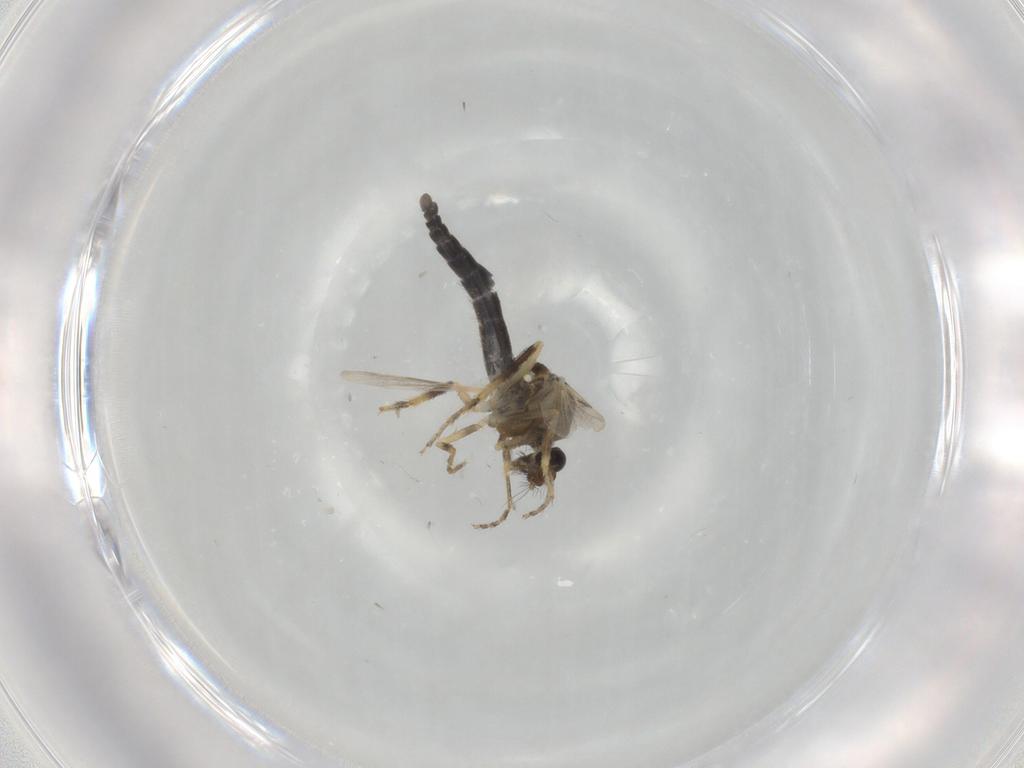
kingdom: Animalia
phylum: Arthropoda
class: Insecta
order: Diptera
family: Ceratopogonidae
